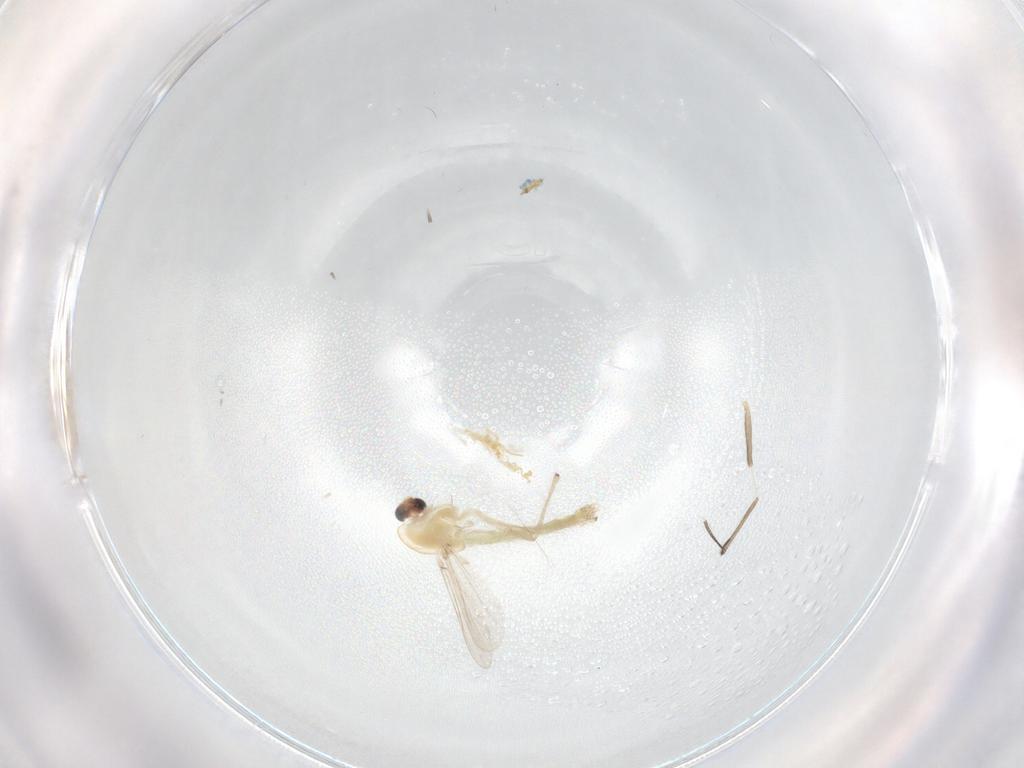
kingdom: Animalia
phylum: Arthropoda
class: Insecta
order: Diptera
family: Chironomidae
